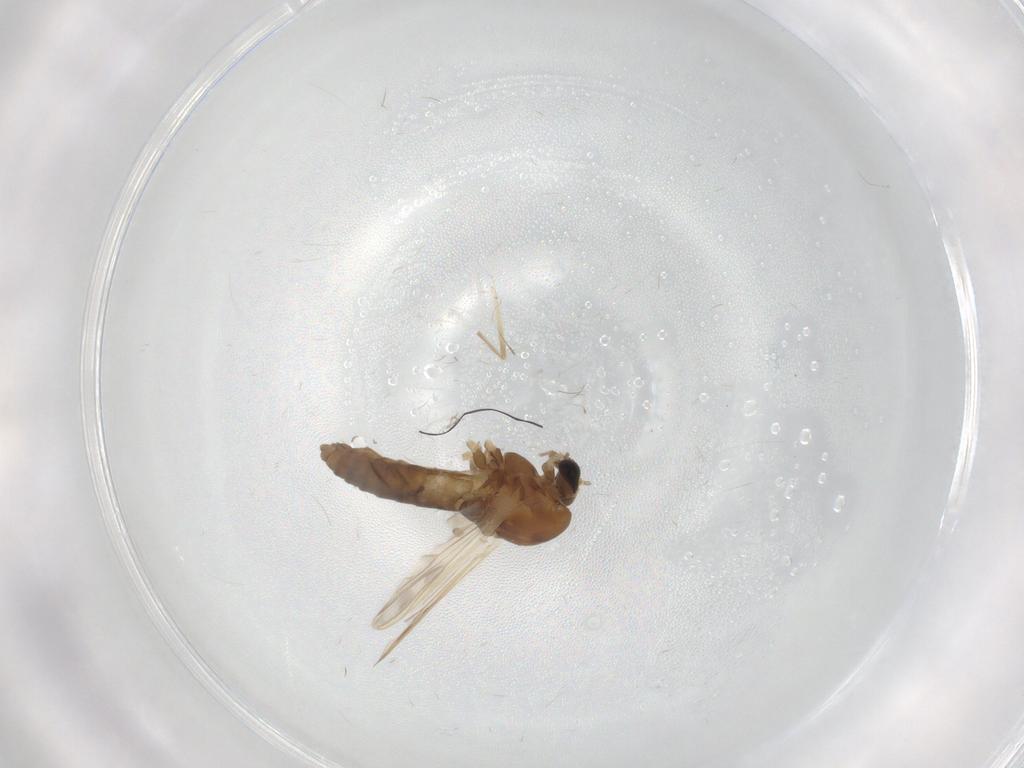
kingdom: Animalia
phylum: Arthropoda
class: Insecta
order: Diptera
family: Chironomidae
